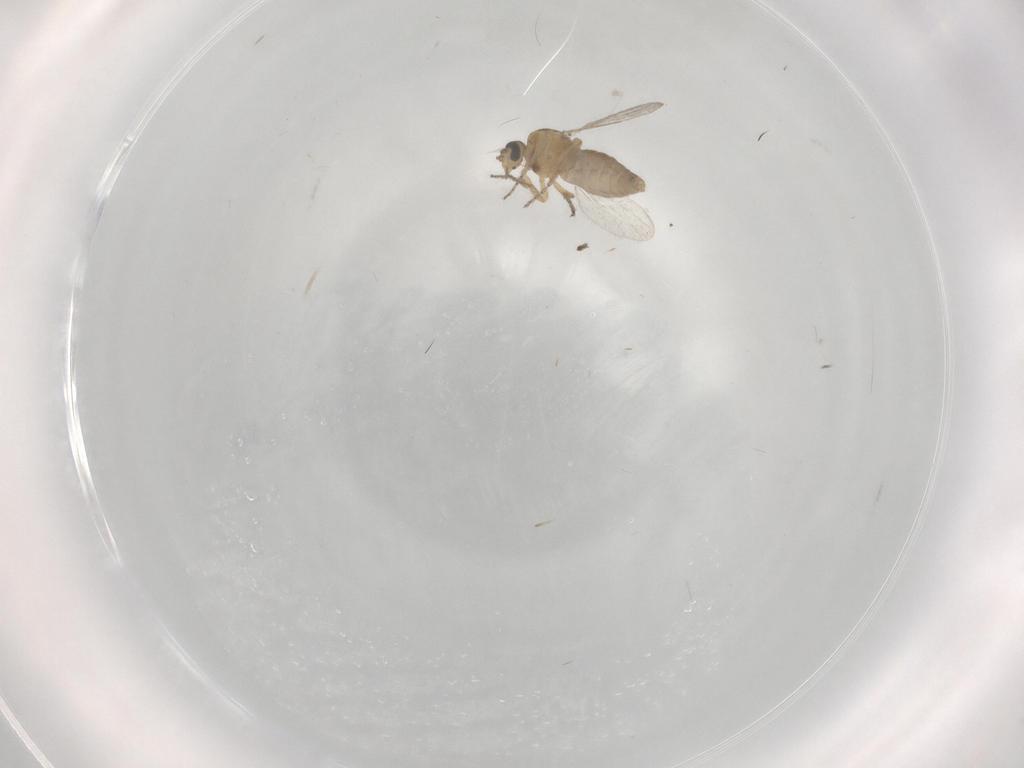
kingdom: Animalia
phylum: Arthropoda
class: Insecta
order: Diptera
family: Ceratopogonidae
